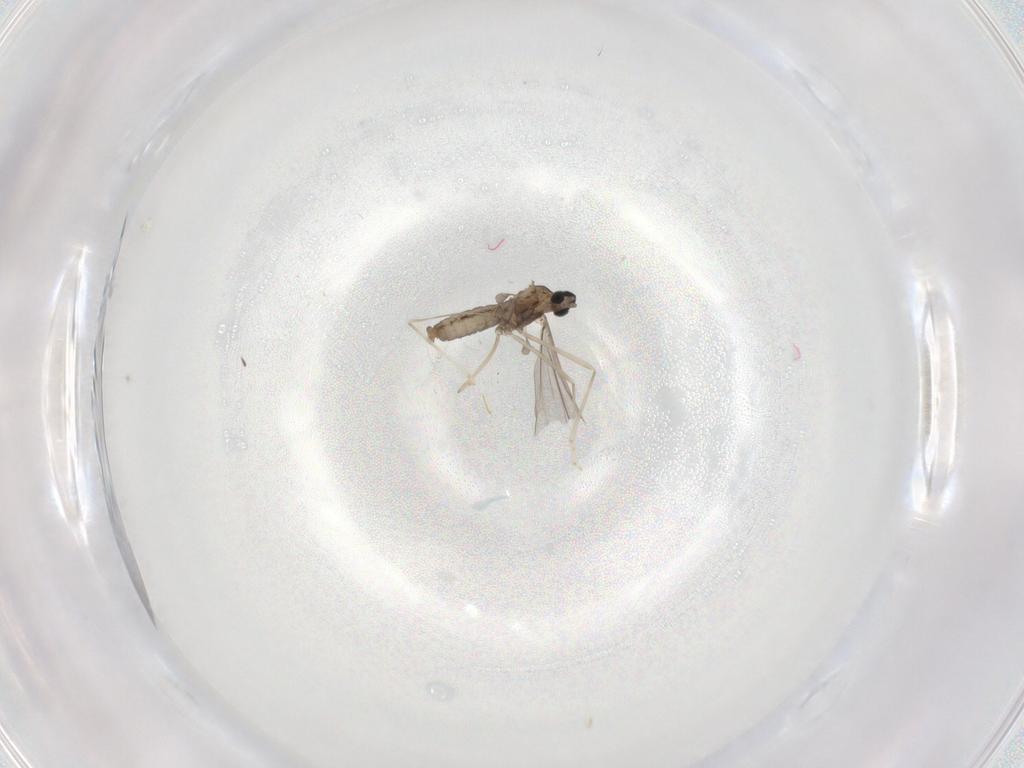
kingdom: Animalia
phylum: Arthropoda
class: Insecta
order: Diptera
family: Cecidomyiidae
